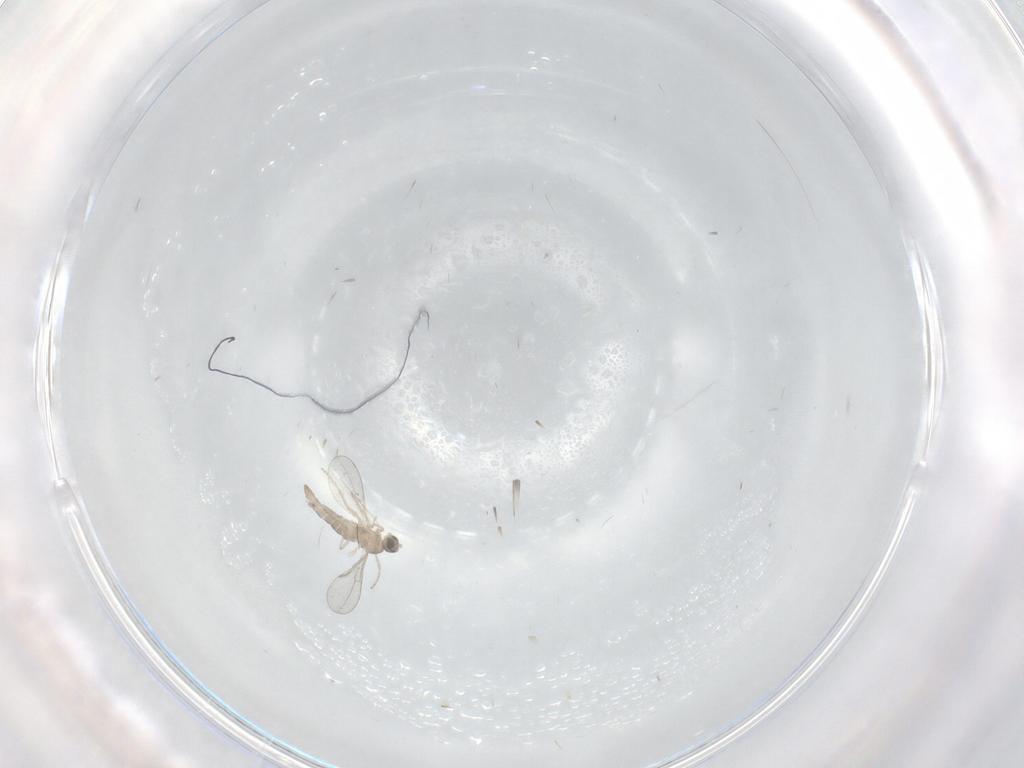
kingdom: Animalia
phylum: Arthropoda
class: Insecta
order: Diptera
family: Cecidomyiidae
